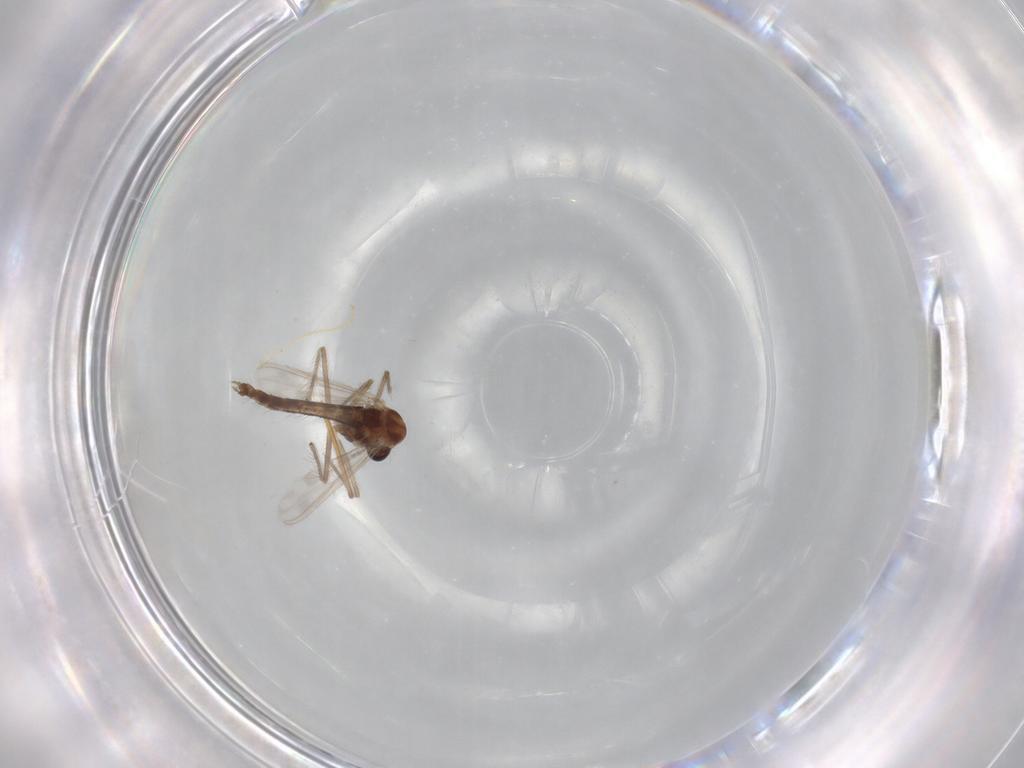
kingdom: Animalia
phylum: Arthropoda
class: Insecta
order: Diptera
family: Chironomidae
